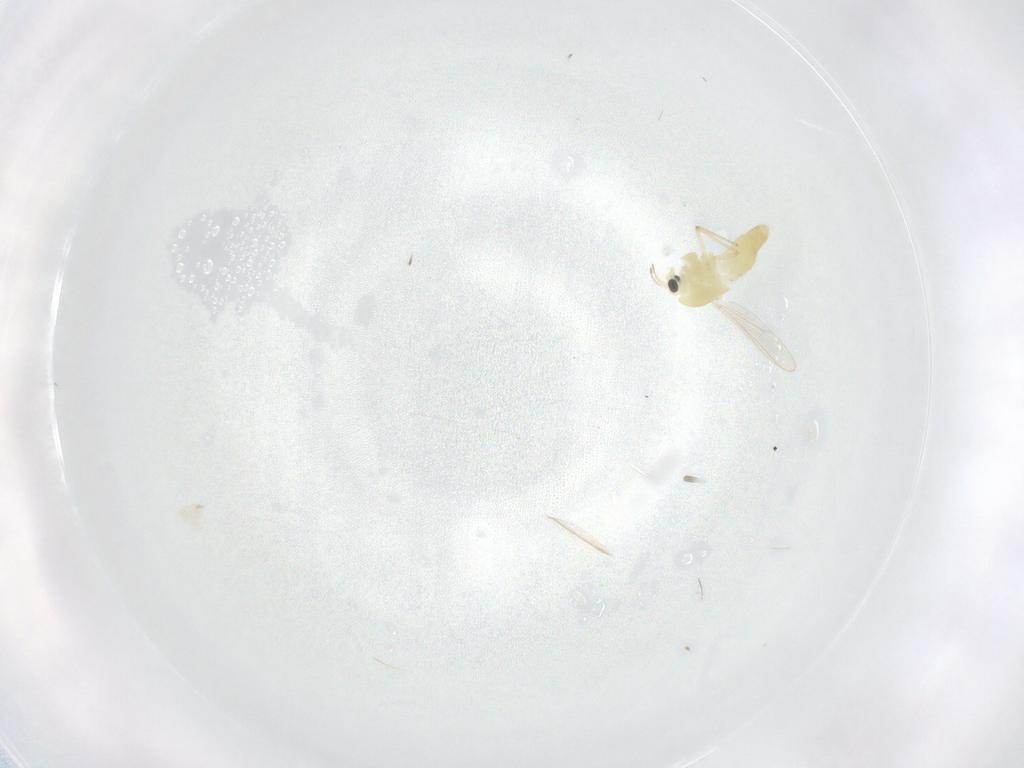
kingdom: Animalia
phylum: Arthropoda
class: Insecta
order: Diptera
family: Chironomidae
